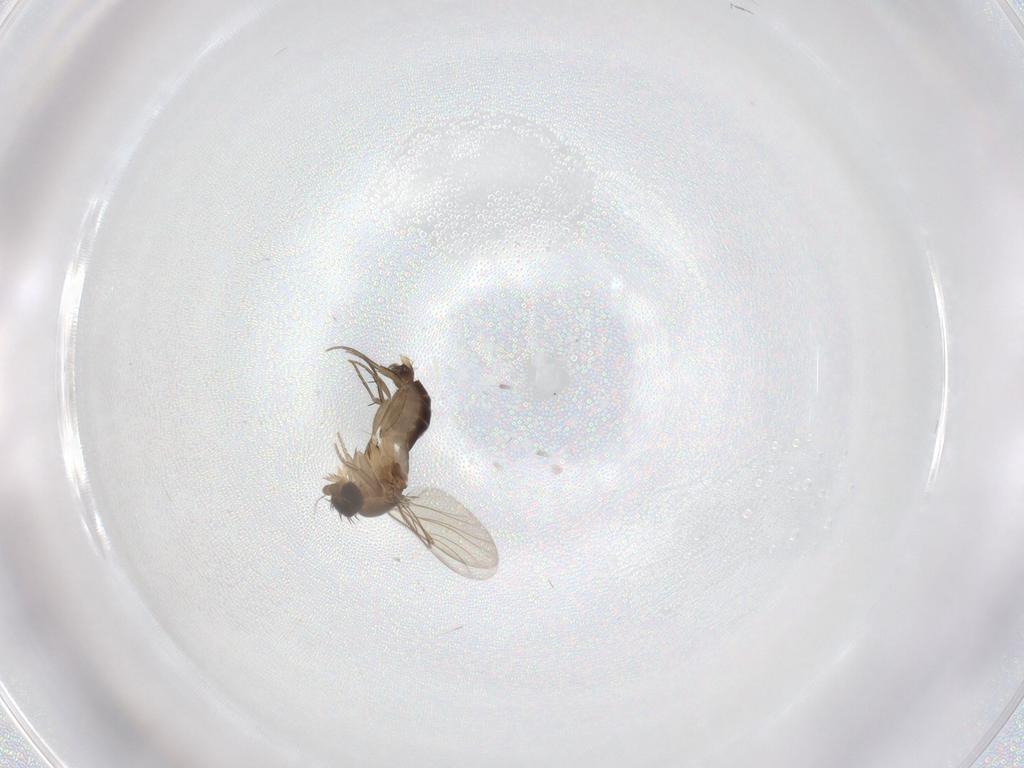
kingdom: Animalia
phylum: Arthropoda
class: Insecta
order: Diptera
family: Phoridae
